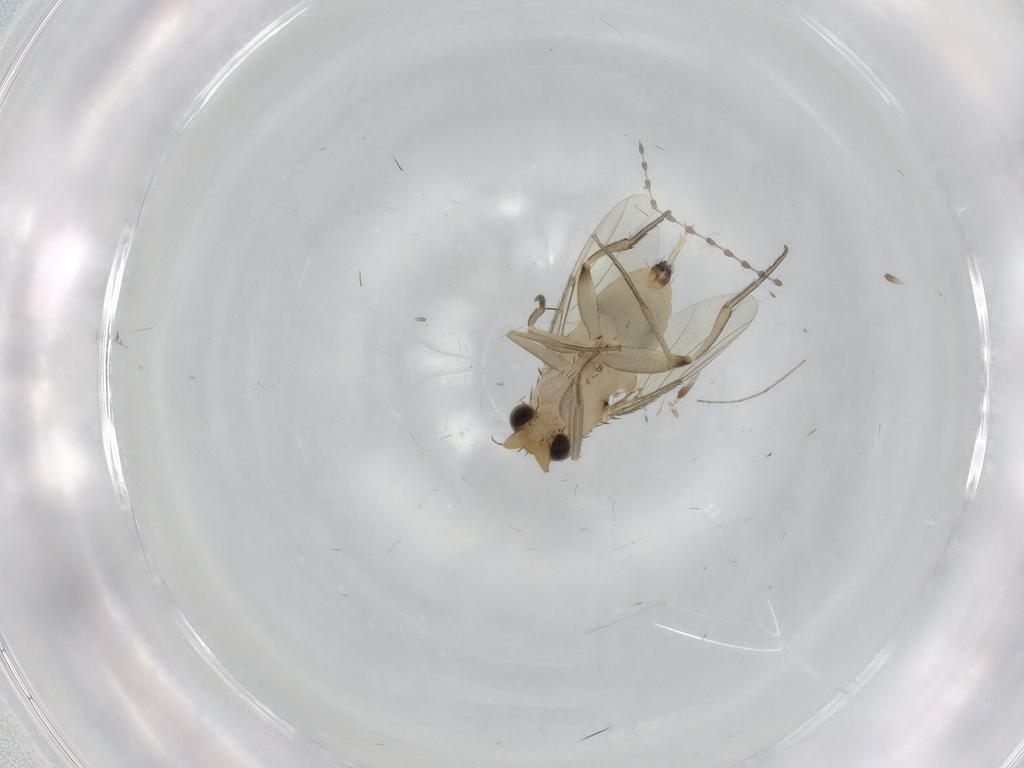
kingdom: Animalia
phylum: Arthropoda
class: Insecta
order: Diptera
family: Phoridae
